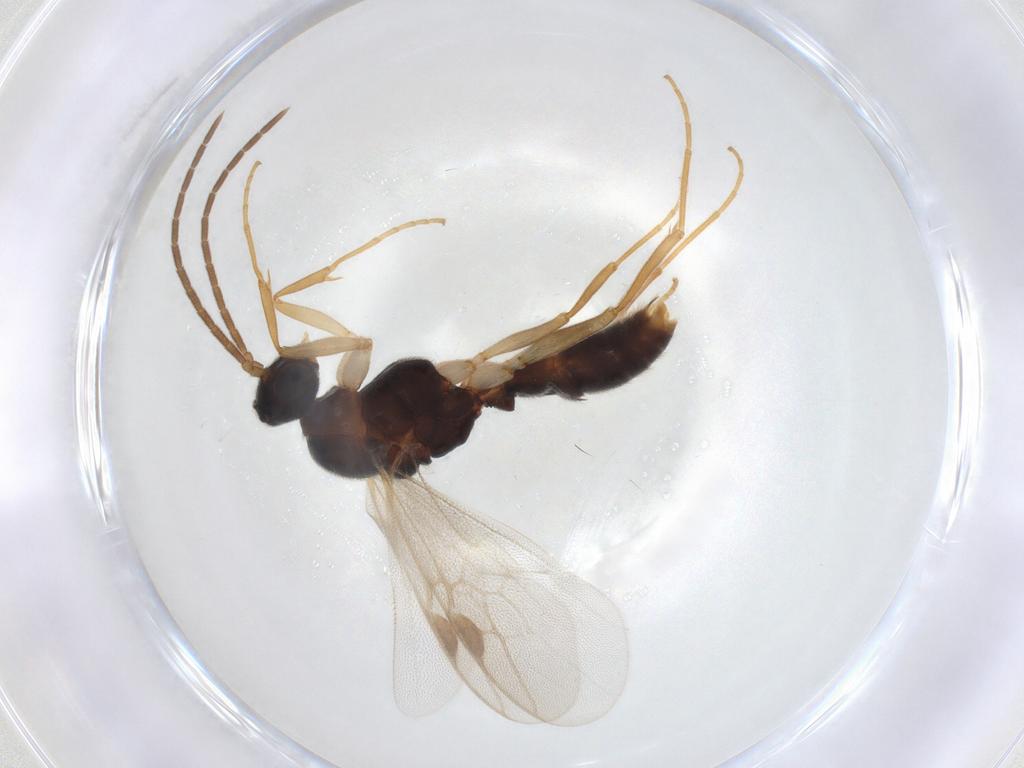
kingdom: Animalia
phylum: Arthropoda
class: Insecta
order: Hymenoptera
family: Formicidae
